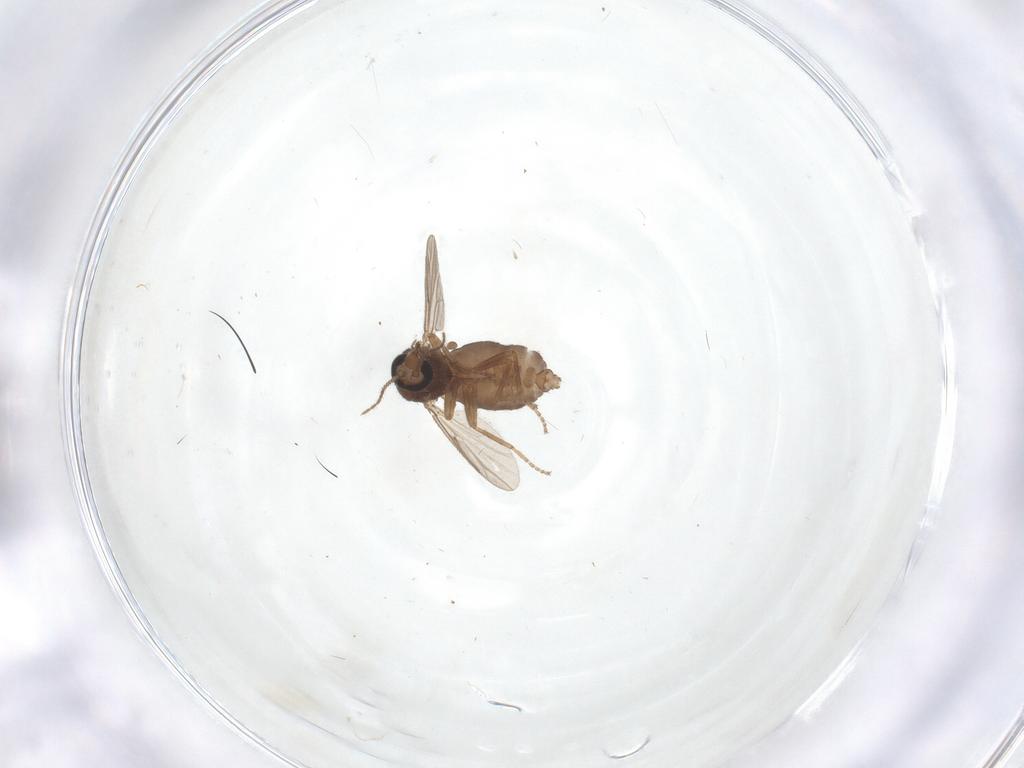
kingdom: Animalia
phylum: Arthropoda
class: Insecta
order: Diptera
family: Ceratopogonidae
